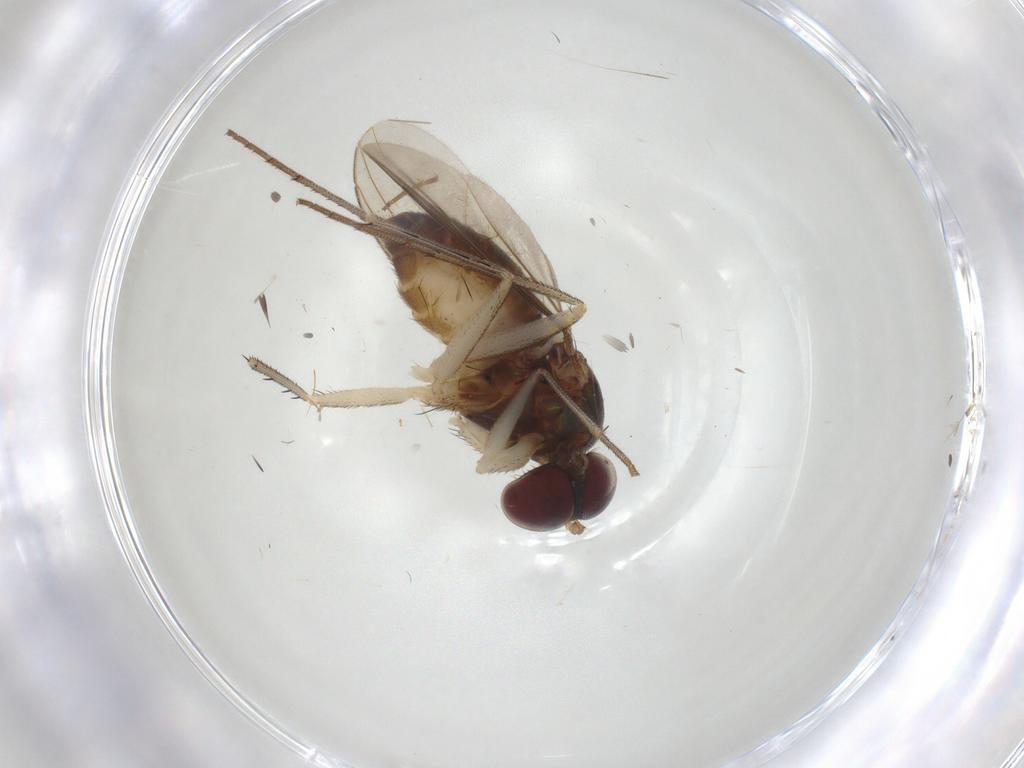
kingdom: Animalia
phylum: Arthropoda
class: Insecta
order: Diptera
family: Dolichopodidae
